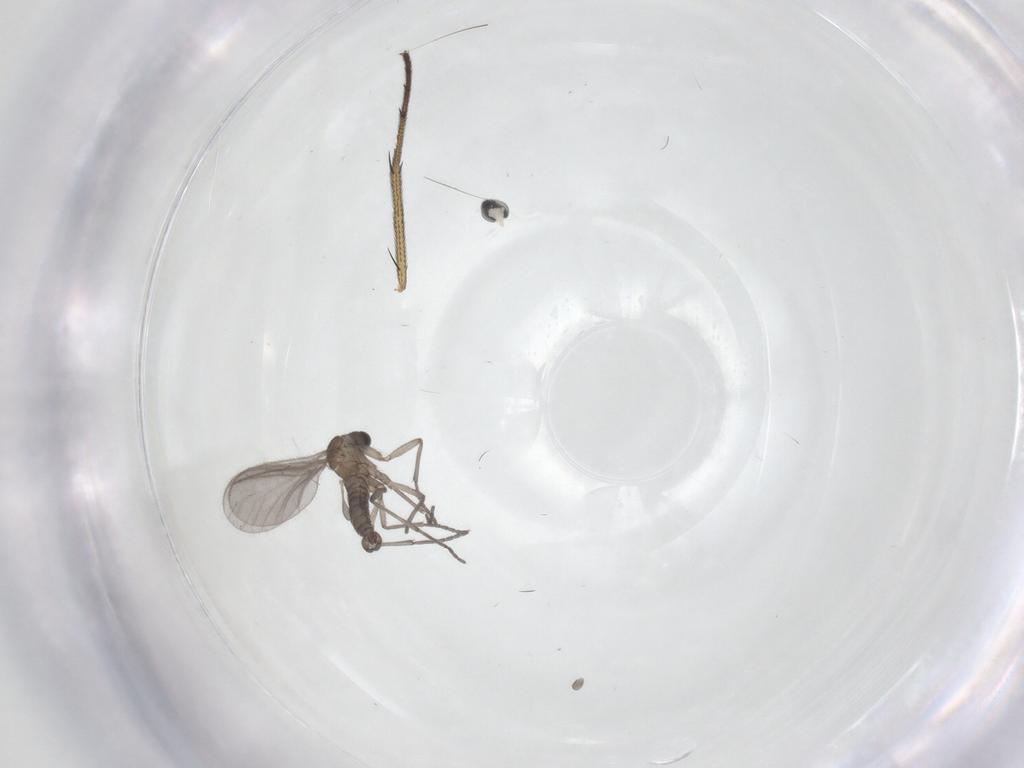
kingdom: Animalia
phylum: Arthropoda
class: Insecta
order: Diptera
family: Sciaridae
